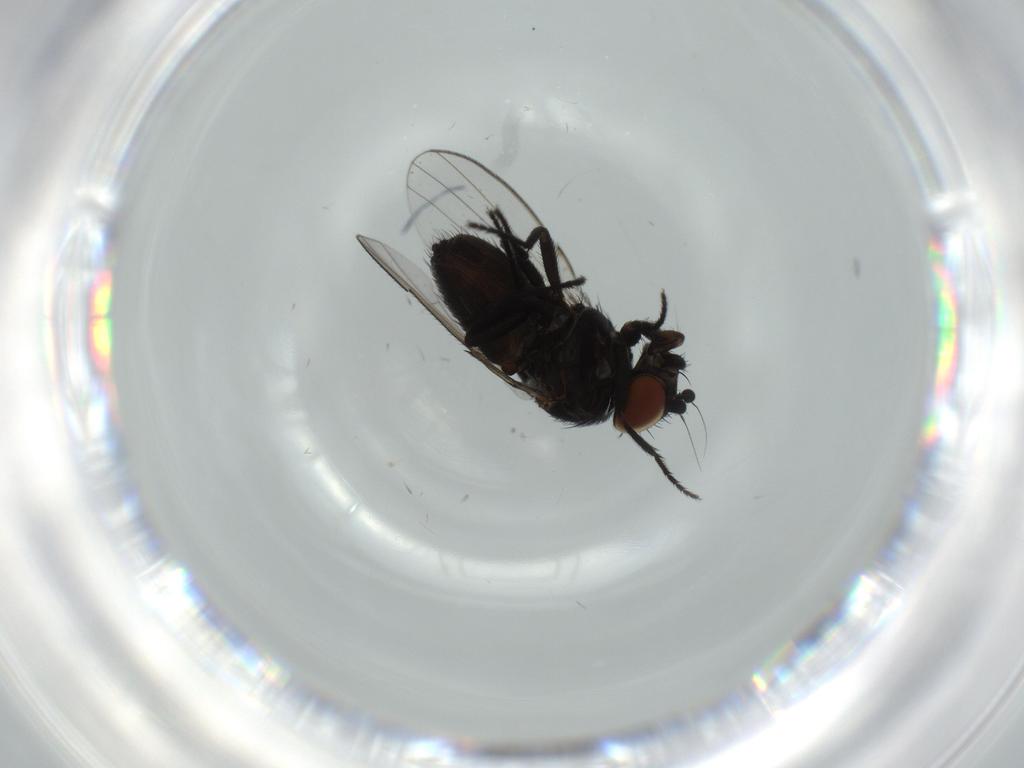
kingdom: Animalia
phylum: Arthropoda
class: Insecta
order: Diptera
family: Milichiidae
